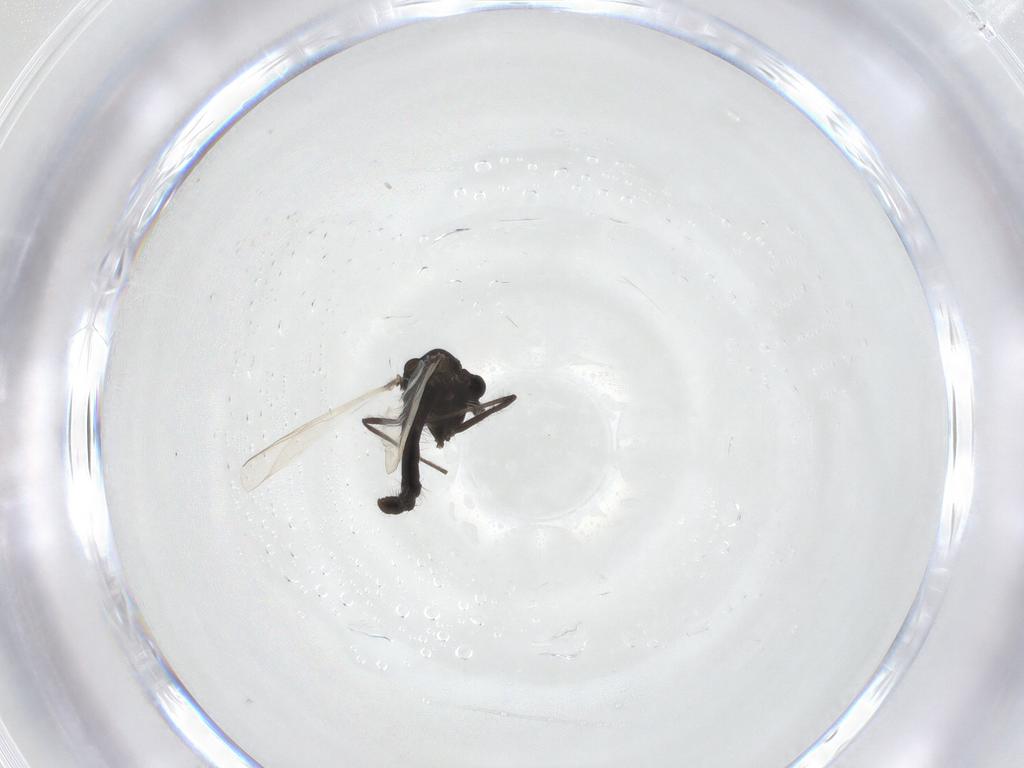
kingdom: Animalia
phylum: Arthropoda
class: Insecta
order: Diptera
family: Chironomidae
